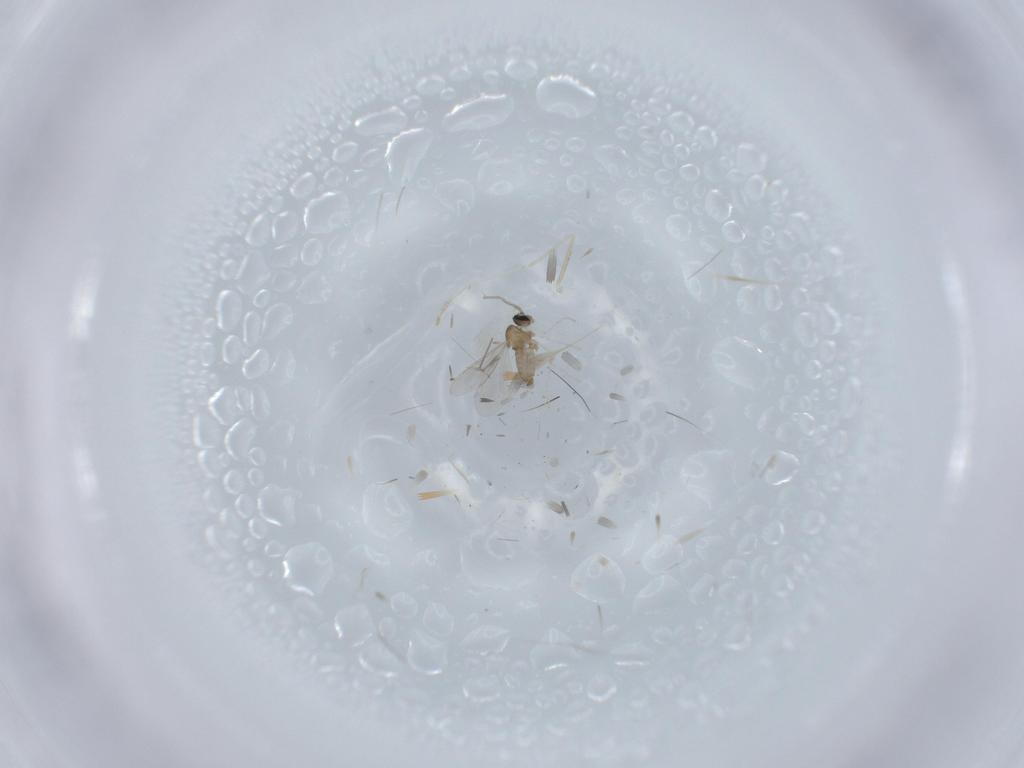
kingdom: Animalia
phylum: Arthropoda
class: Insecta
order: Diptera
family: Cecidomyiidae
